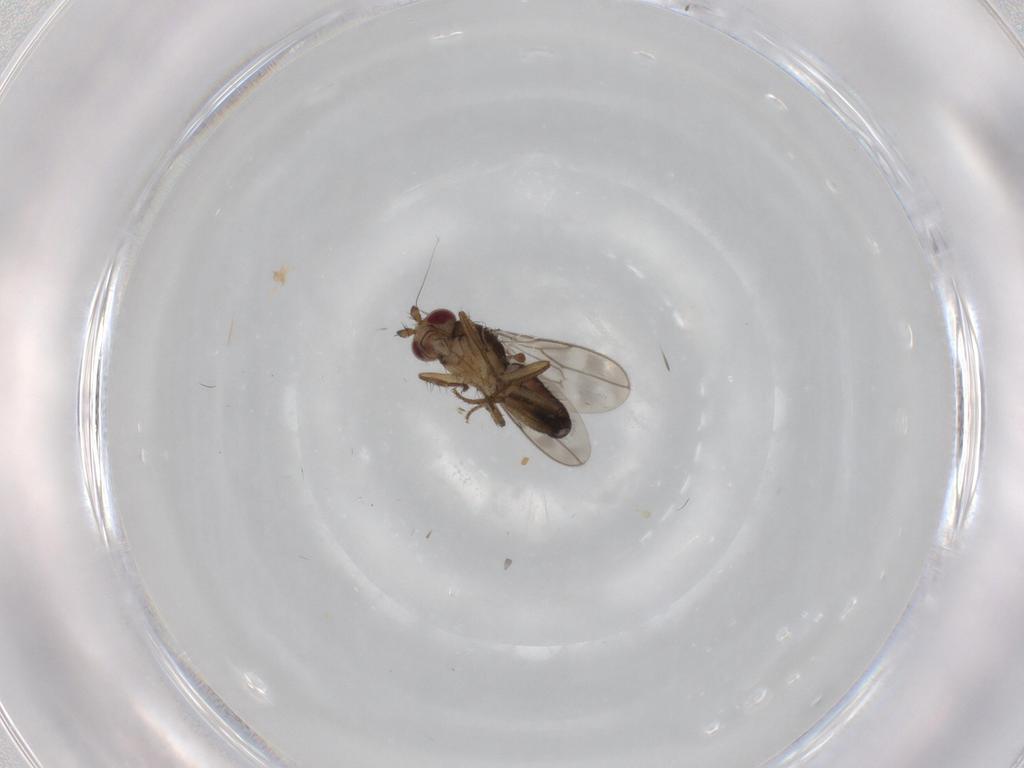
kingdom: Animalia
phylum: Arthropoda
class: Insecta
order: Diptera
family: Sphaeroceridae
